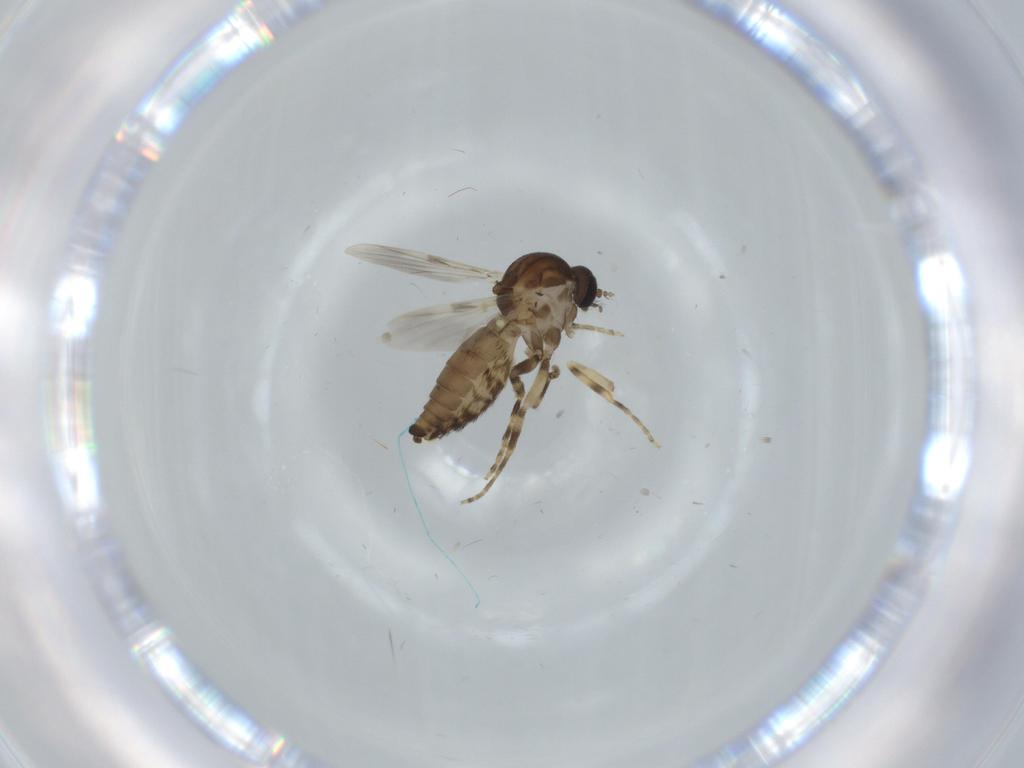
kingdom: Animalia
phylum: Arthropoda
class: Insecta
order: Diptera
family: Ceratopogonidae
